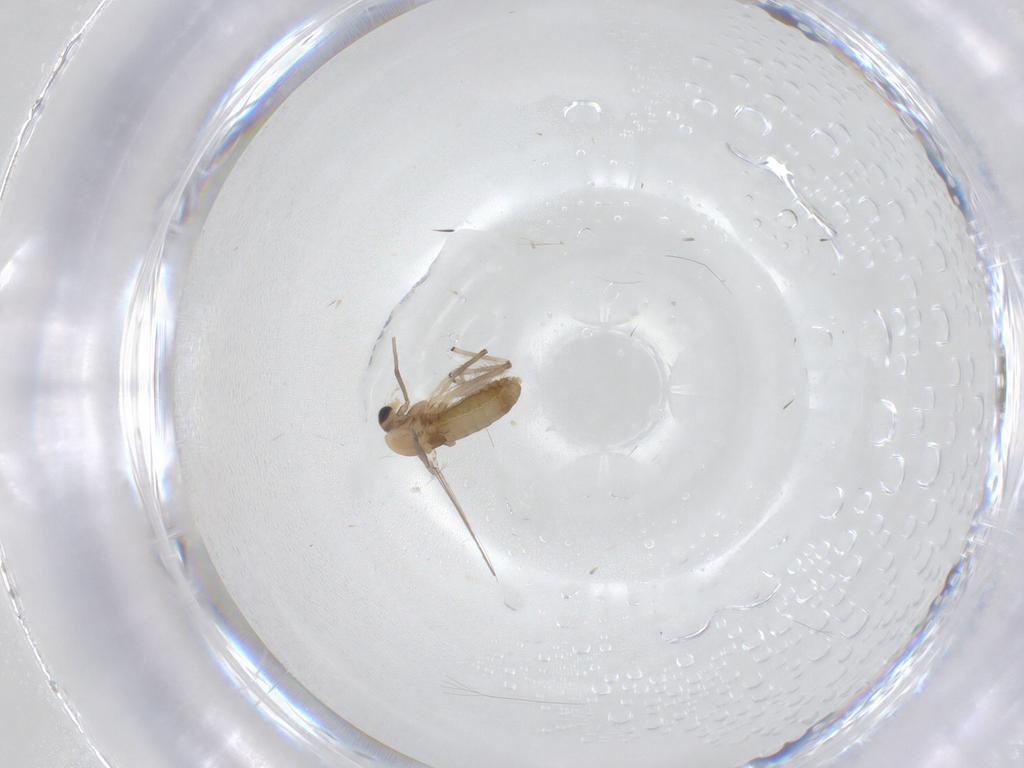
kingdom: Animalia
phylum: Arthropoda
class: Insecta
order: Diptera
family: Chironomidae
